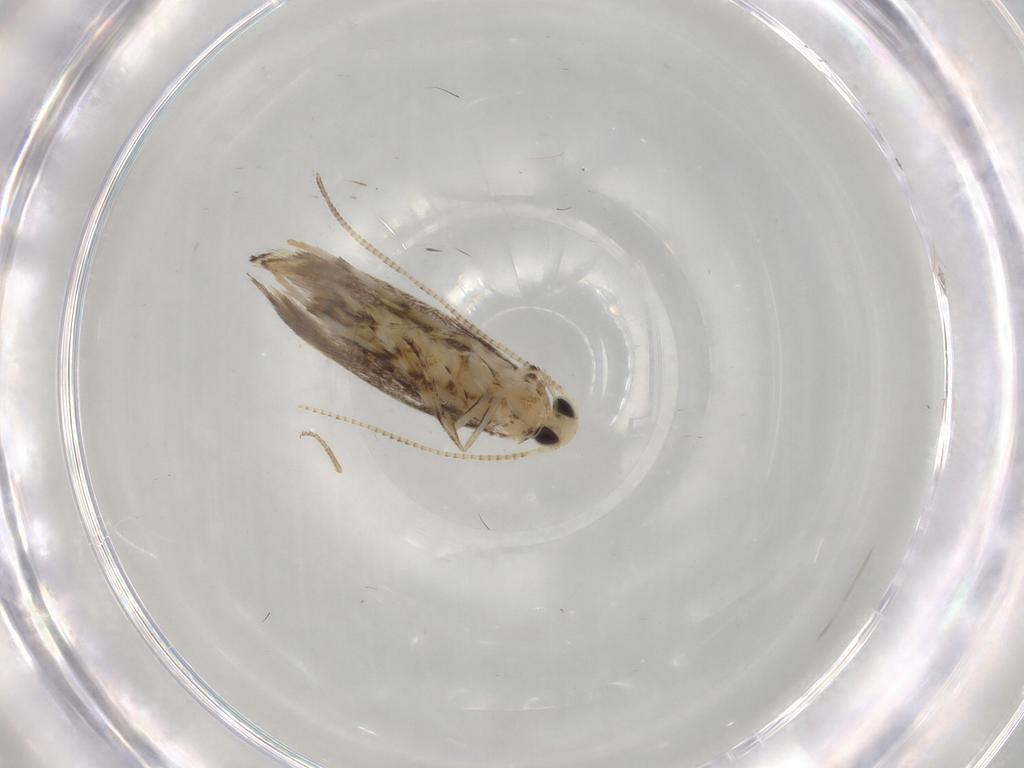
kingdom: Animalia
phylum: Arthropoda
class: Insecta
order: Lepidoptera
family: Gracillariidae
